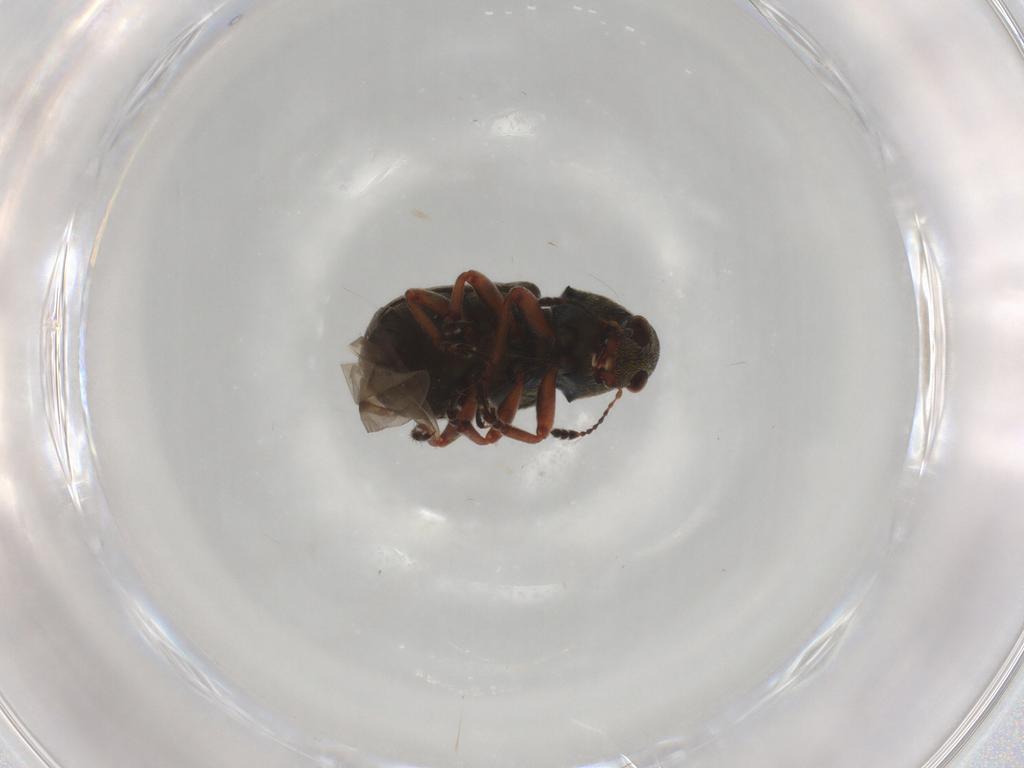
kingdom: Animalia
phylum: Arthropoda
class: Insecta
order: Coleoptera
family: Anthribidae
